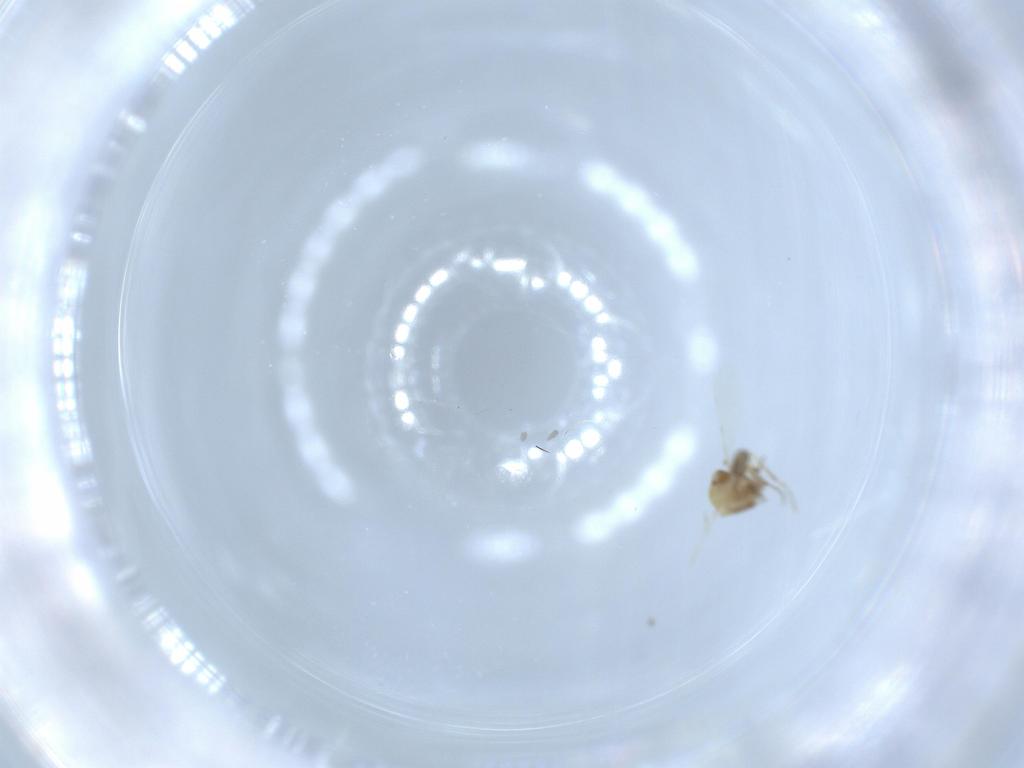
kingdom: Animalia
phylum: Arthropoda
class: Insecta
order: Diptera
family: Ceratopogonidae
